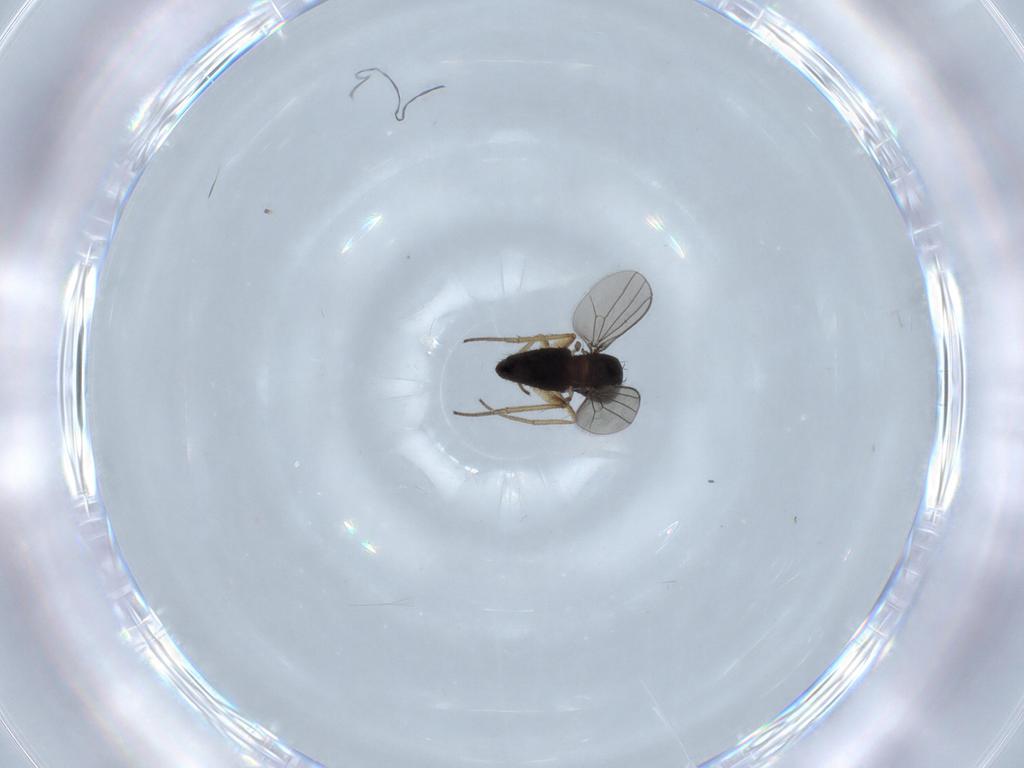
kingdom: Animalia
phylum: Arthropoda
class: Insecta
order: Diptera
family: Dolichopodidae
